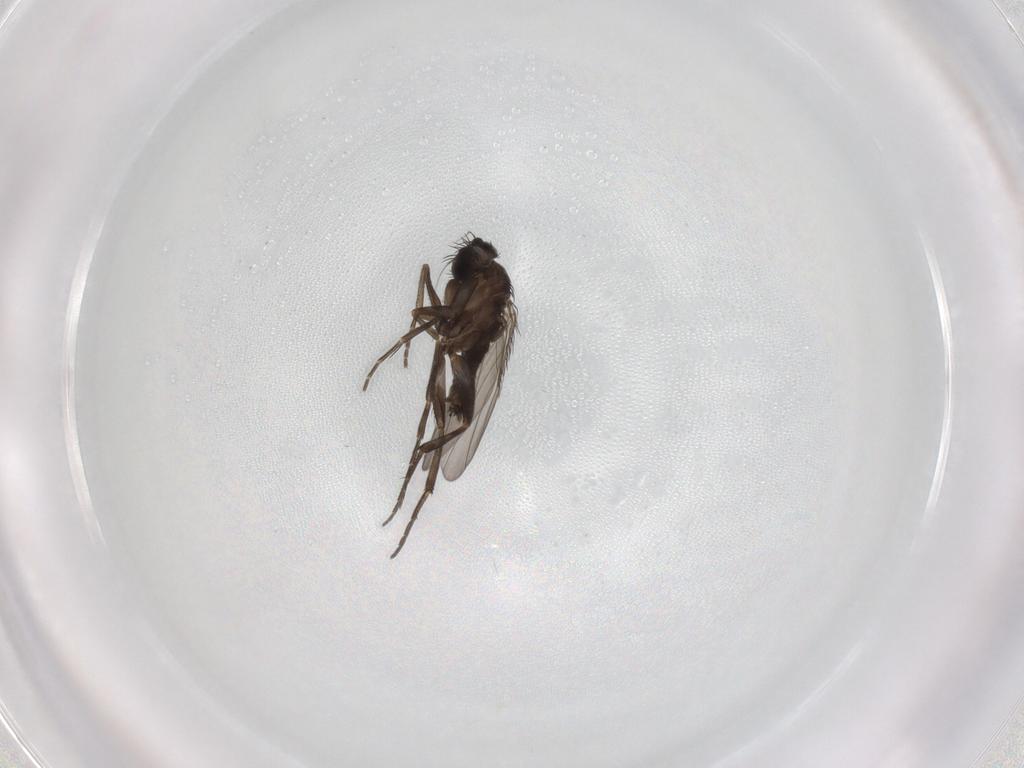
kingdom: Animalia
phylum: Arthropoda
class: Insecta
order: Diptera
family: Phoridae
